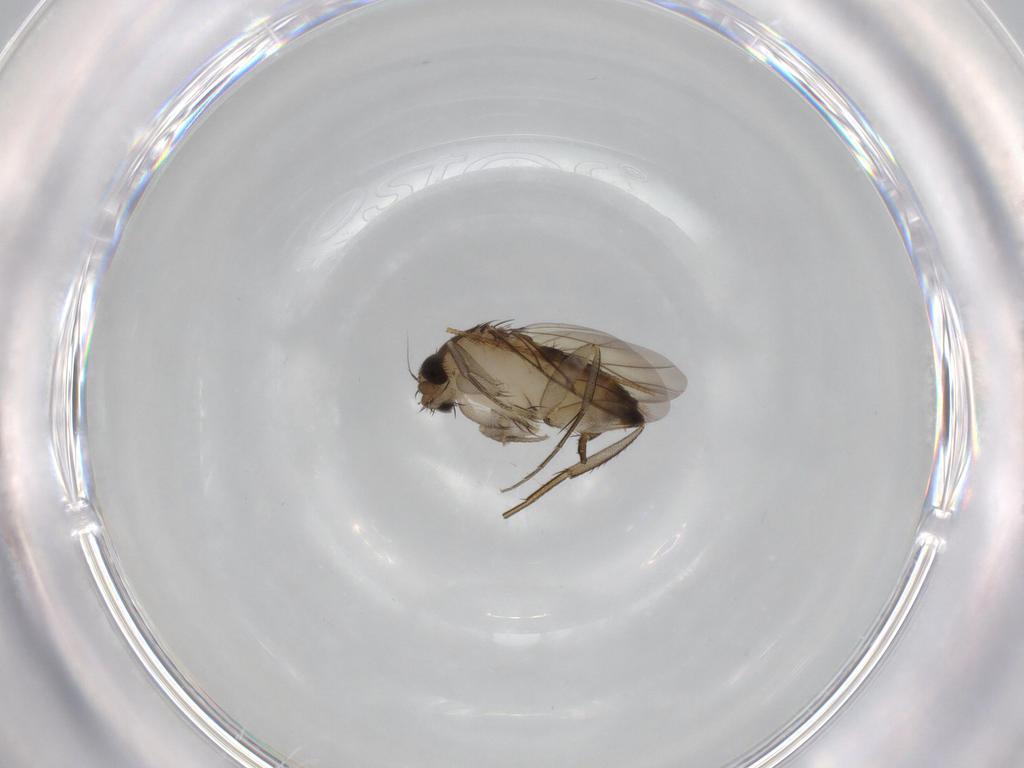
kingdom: Animalia
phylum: Arthropoda
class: Insecta
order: Diptera
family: Phoridae
